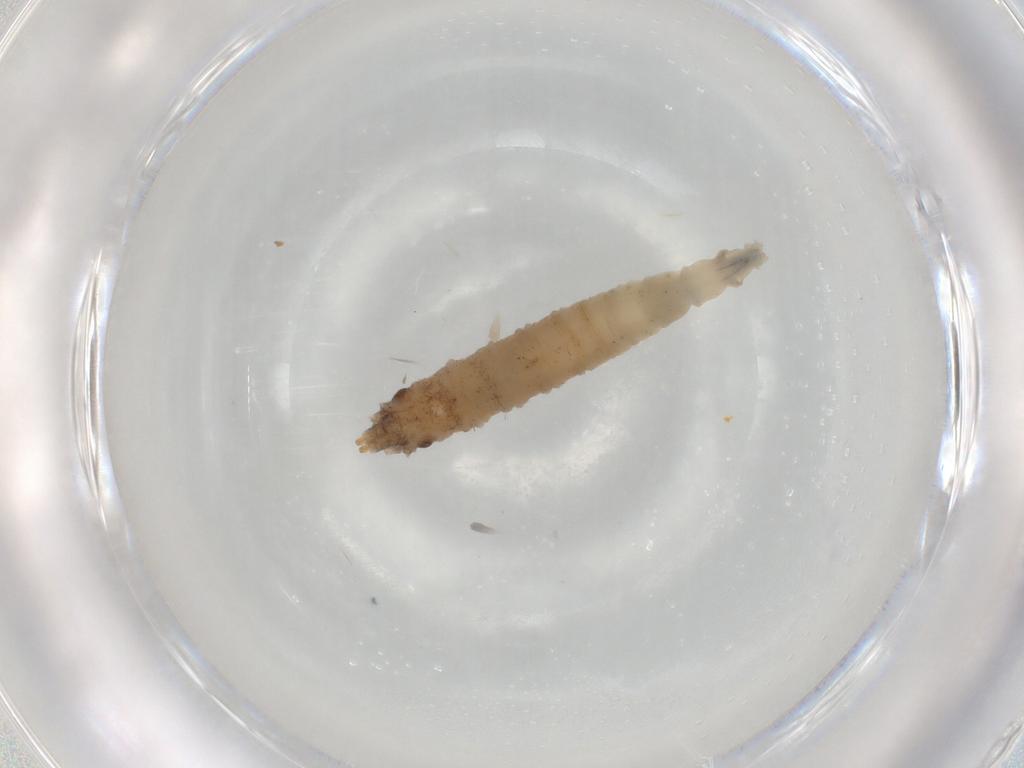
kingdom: Animalia
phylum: Arthropoda
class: Insecta
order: Diptera
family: Drosophilidae
